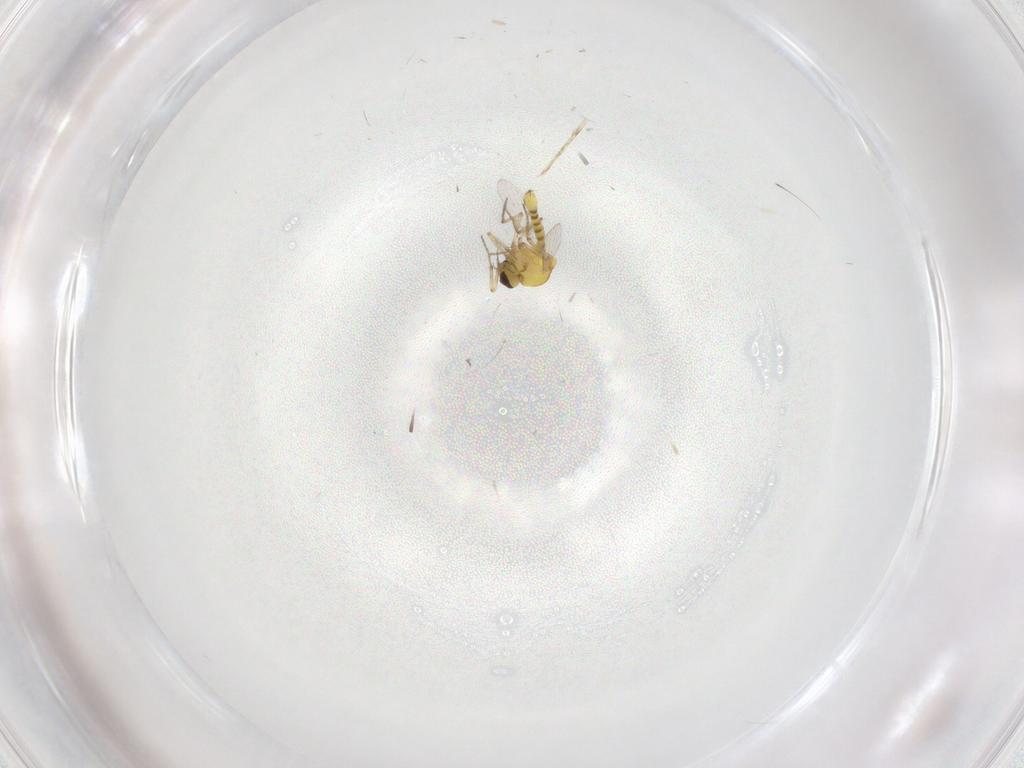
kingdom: Animalia
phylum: Arthropoda
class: Insecta
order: Diptera
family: Ceratopogonidae
